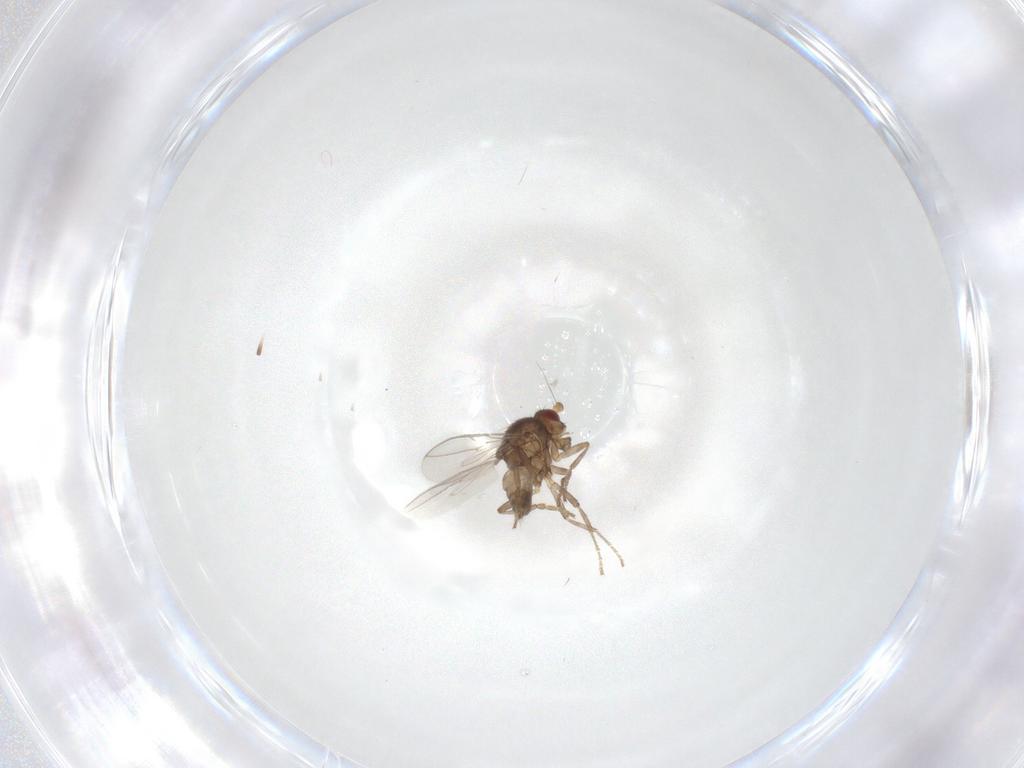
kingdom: Animalia
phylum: Arthropoda
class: Insecta
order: Diptera
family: Sphaeroceridae
